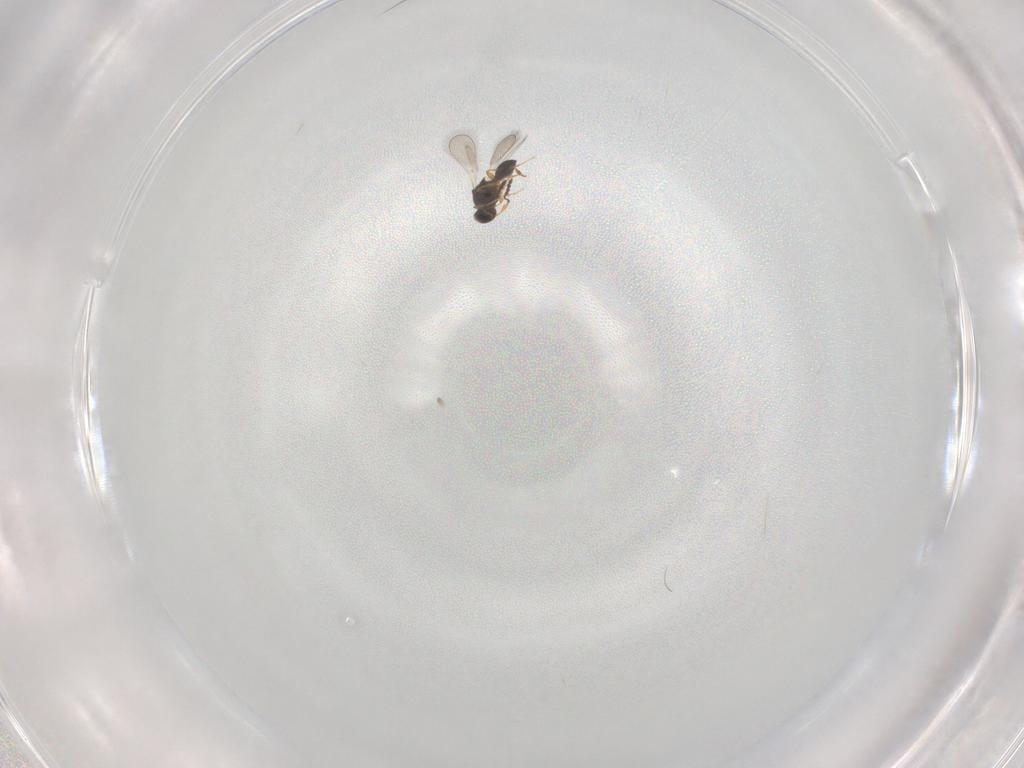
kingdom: Animalia
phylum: Arthropoda
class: Insecta
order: Hymenoptera
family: Platygastridae
